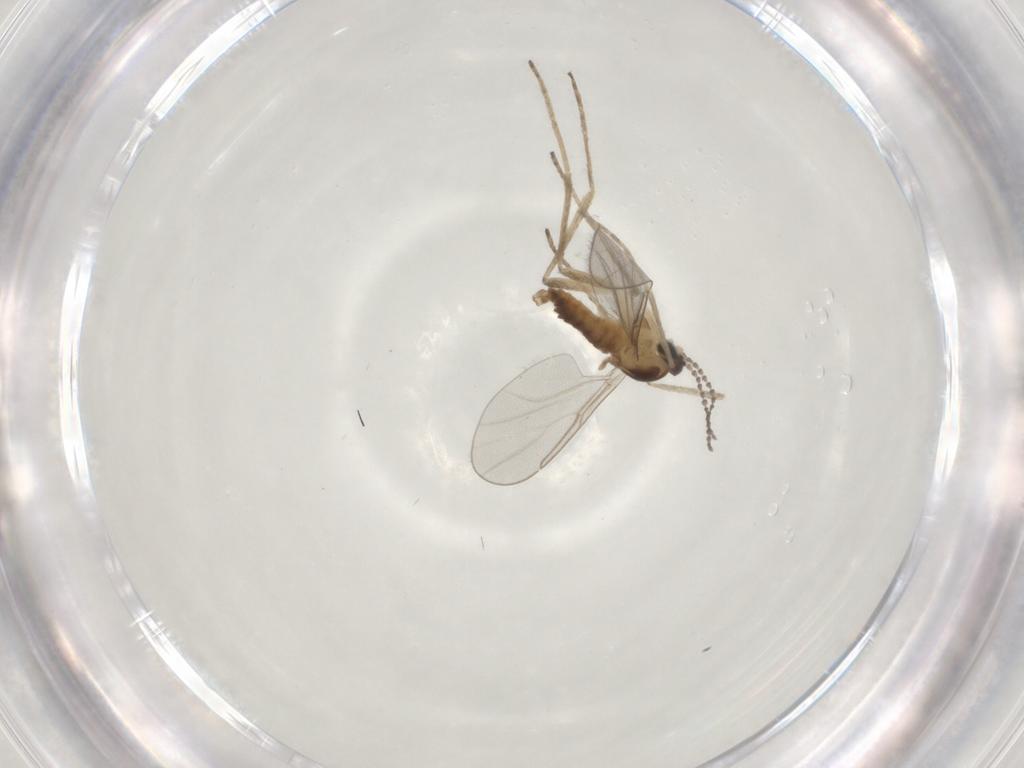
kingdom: Animalia
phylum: Arthropoda
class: Insecta
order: Diptera
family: Cecidomyiidae
